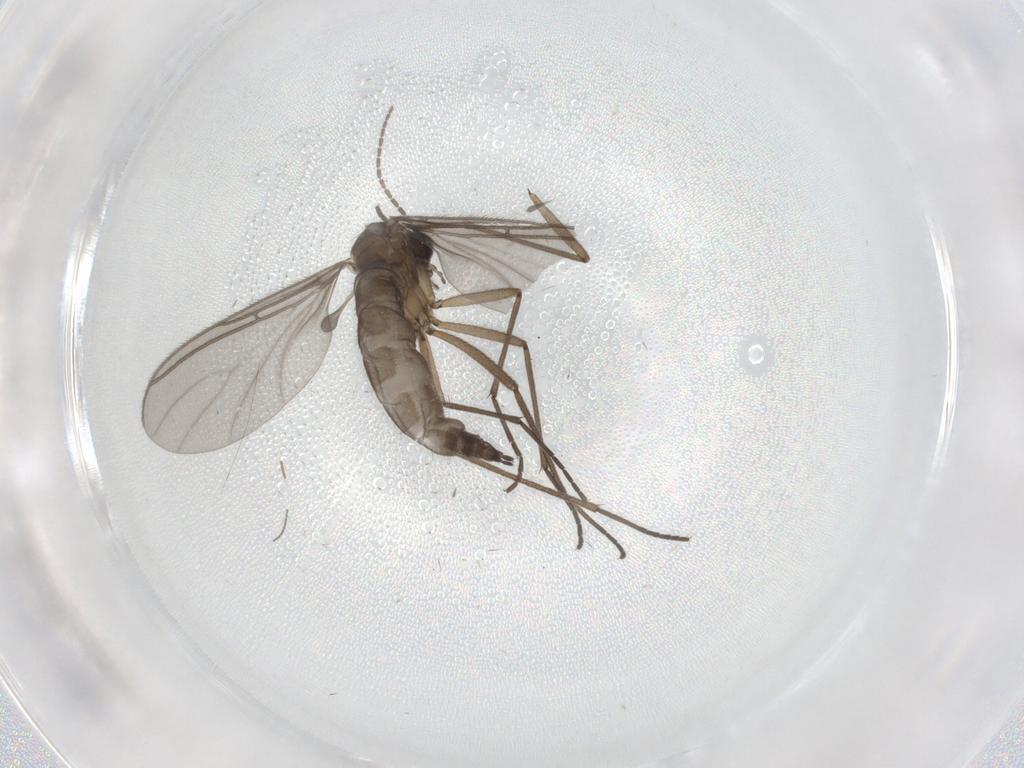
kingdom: Animalia
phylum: Arthropoda
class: Insecta
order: Diptera
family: Sciaridae
